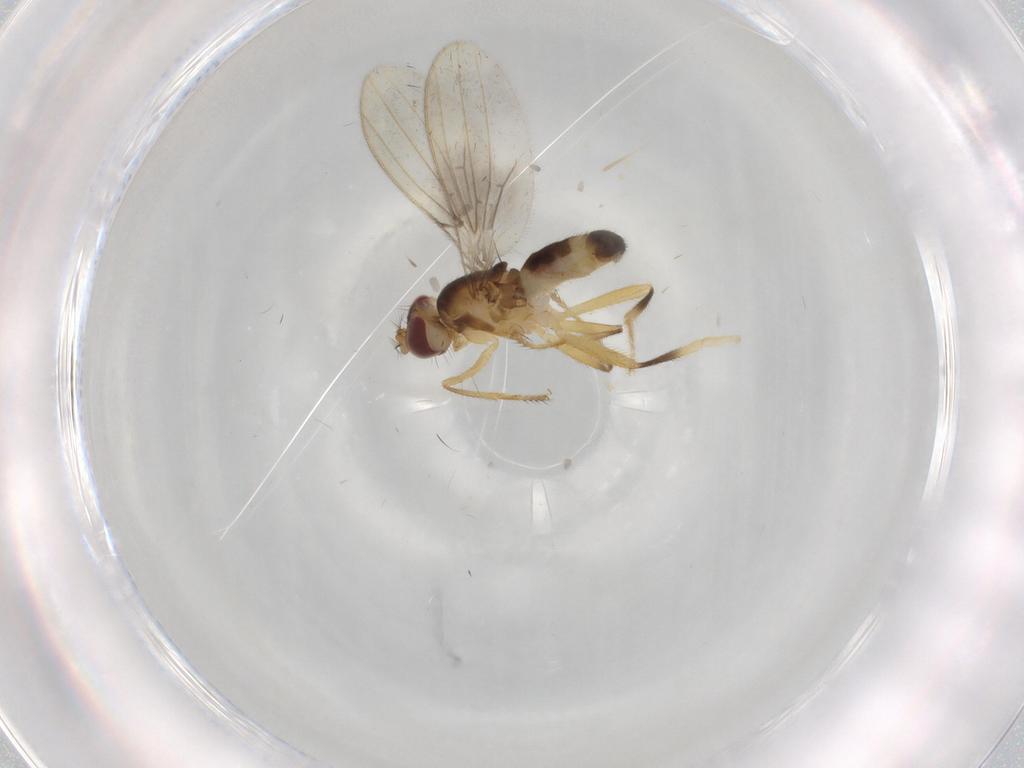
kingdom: Animalia
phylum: Arthropoda
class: Insecta
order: Diptera
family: Periscelididae
